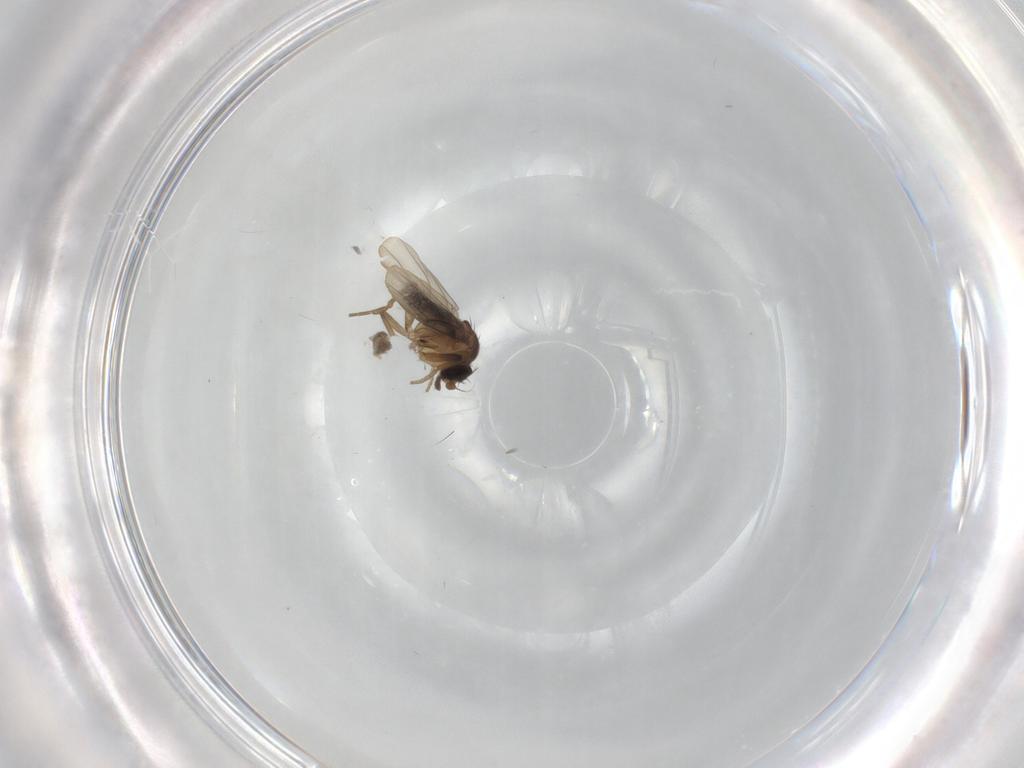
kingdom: Animalia
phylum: Arthropoda
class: Insecta
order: Diptera
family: Phoridae
